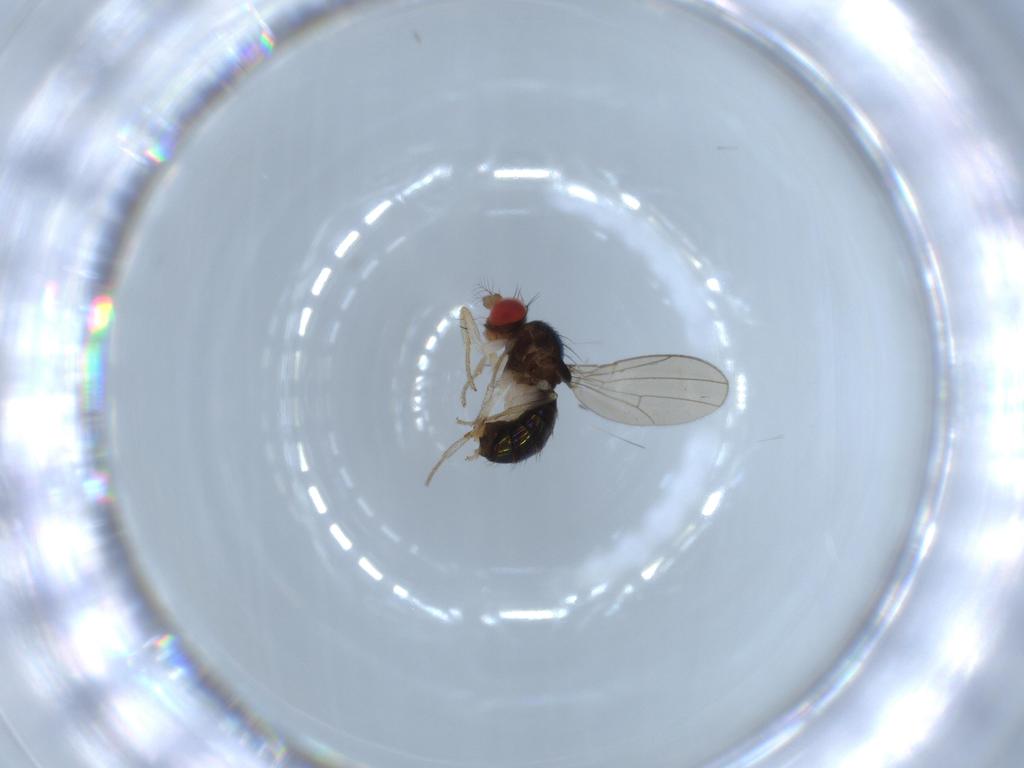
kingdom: Animalia
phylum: Arthropoda
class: Insecta
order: Diptera
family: Drosophilidae
